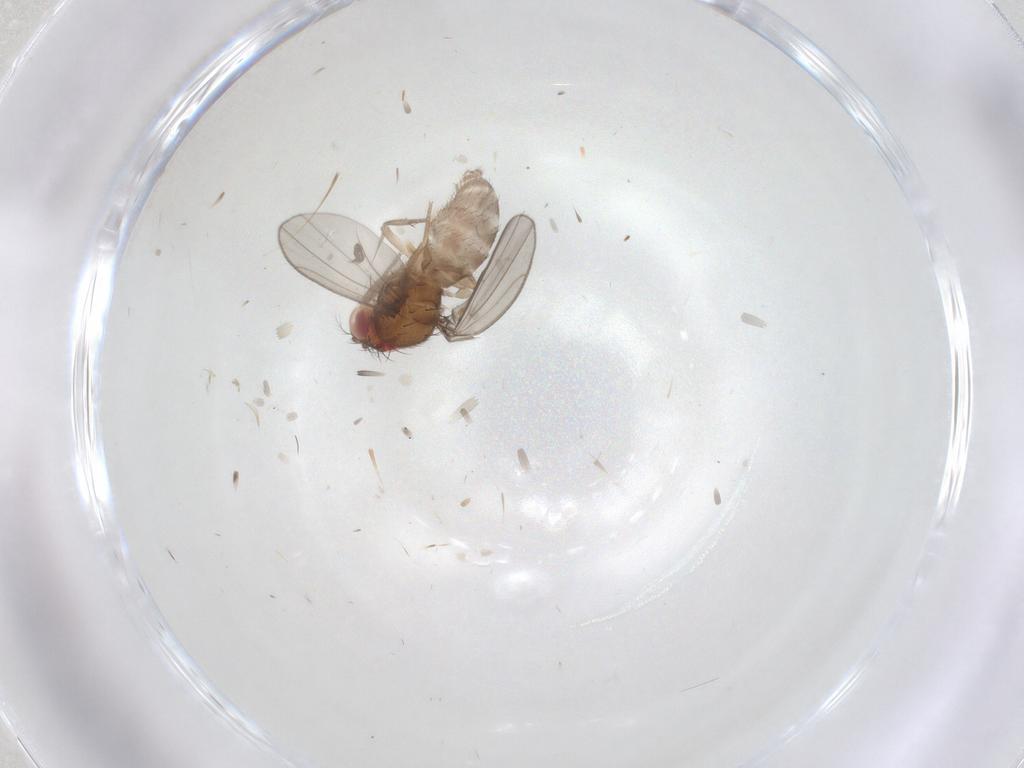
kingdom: Animalia
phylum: Arthropoda
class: Insecta
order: Diptera
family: Drosophilidae
